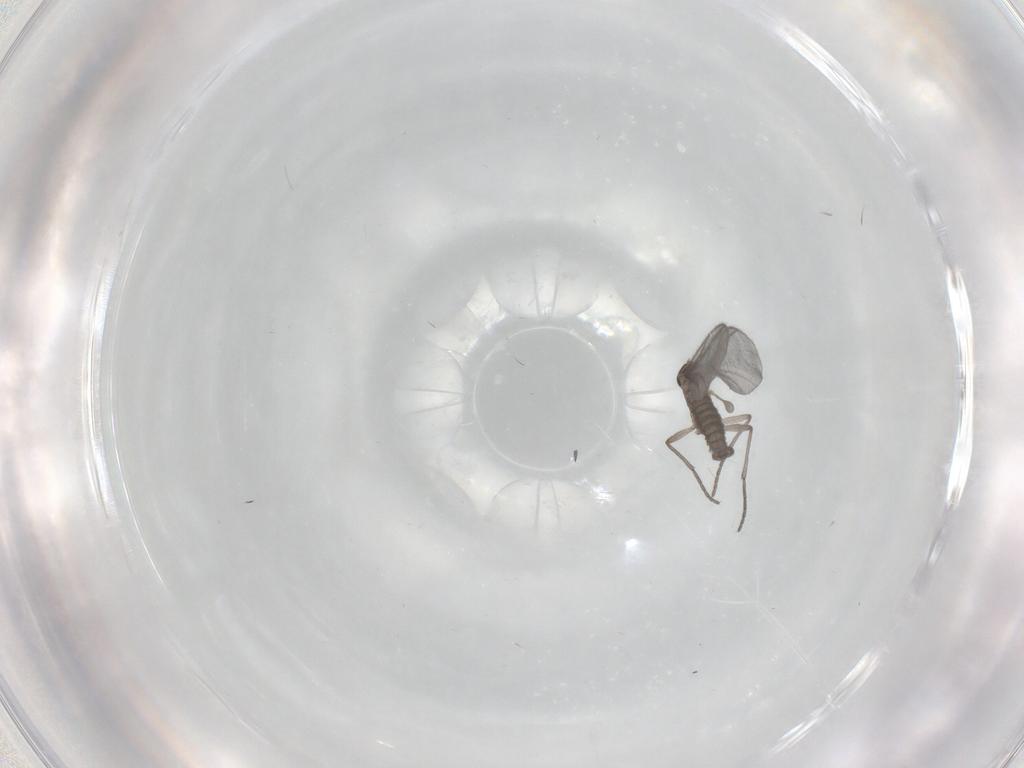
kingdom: Animalia
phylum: Arthropoda
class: Insecta
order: Diptera
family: Sciaridae
